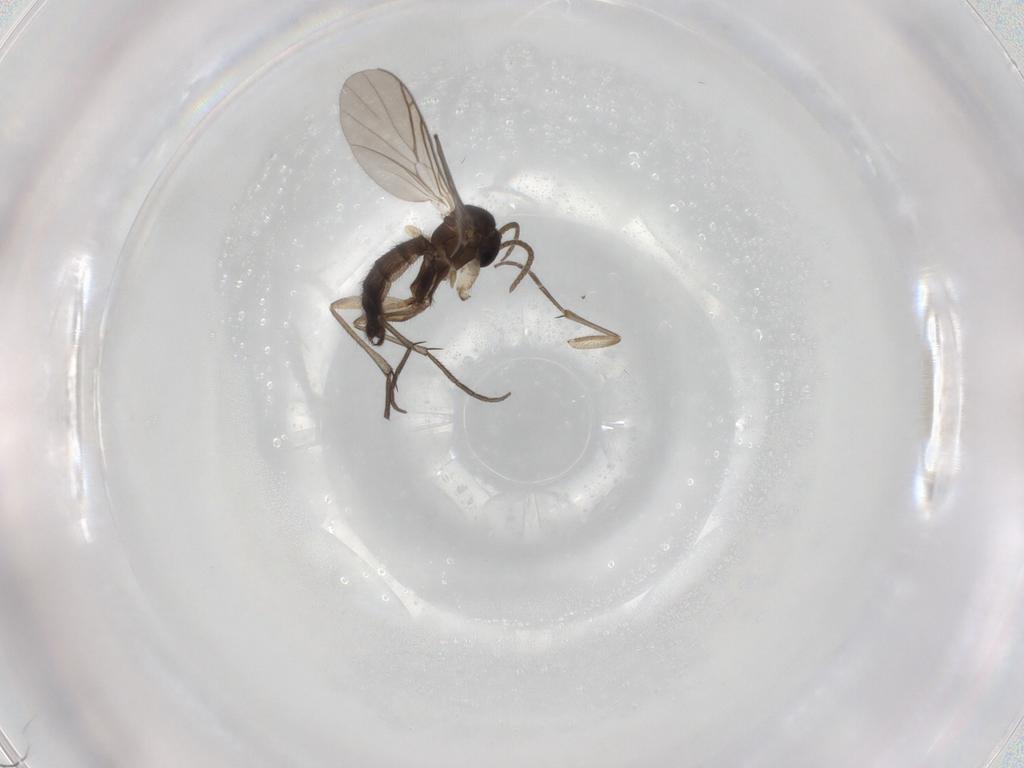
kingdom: Animalia
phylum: Arthropoda
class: Insecta
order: Diptera
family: Keroplatidae
